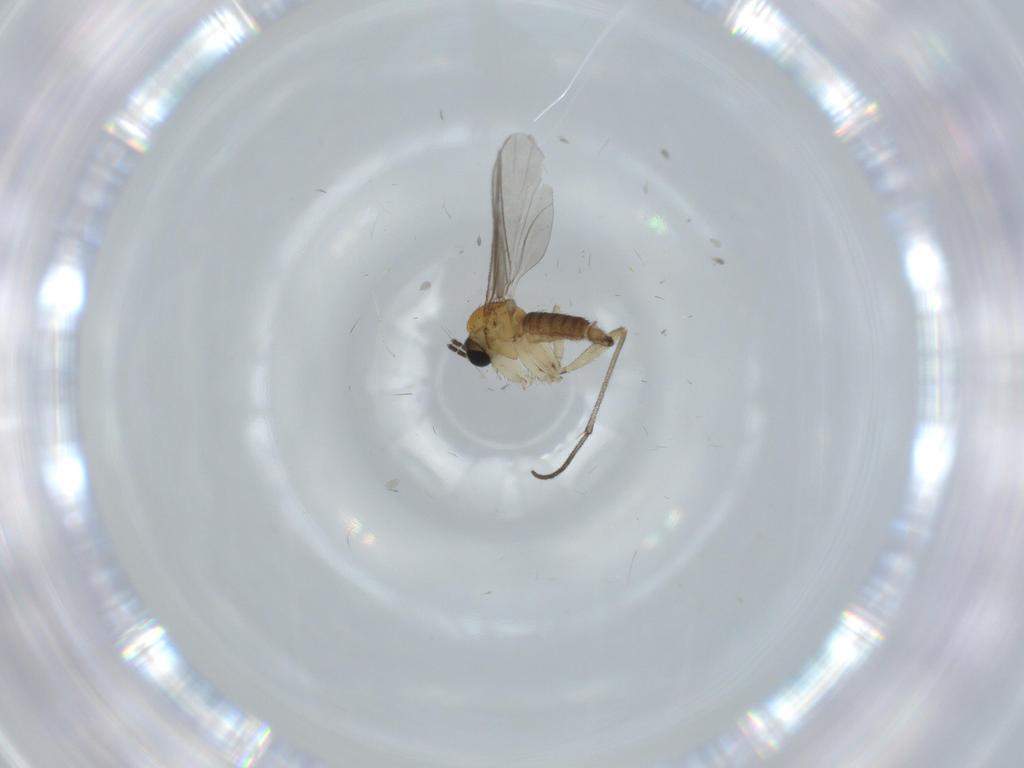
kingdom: Animalia
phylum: Arthropoda
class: Insecta
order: Diptera
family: Sciaridae
